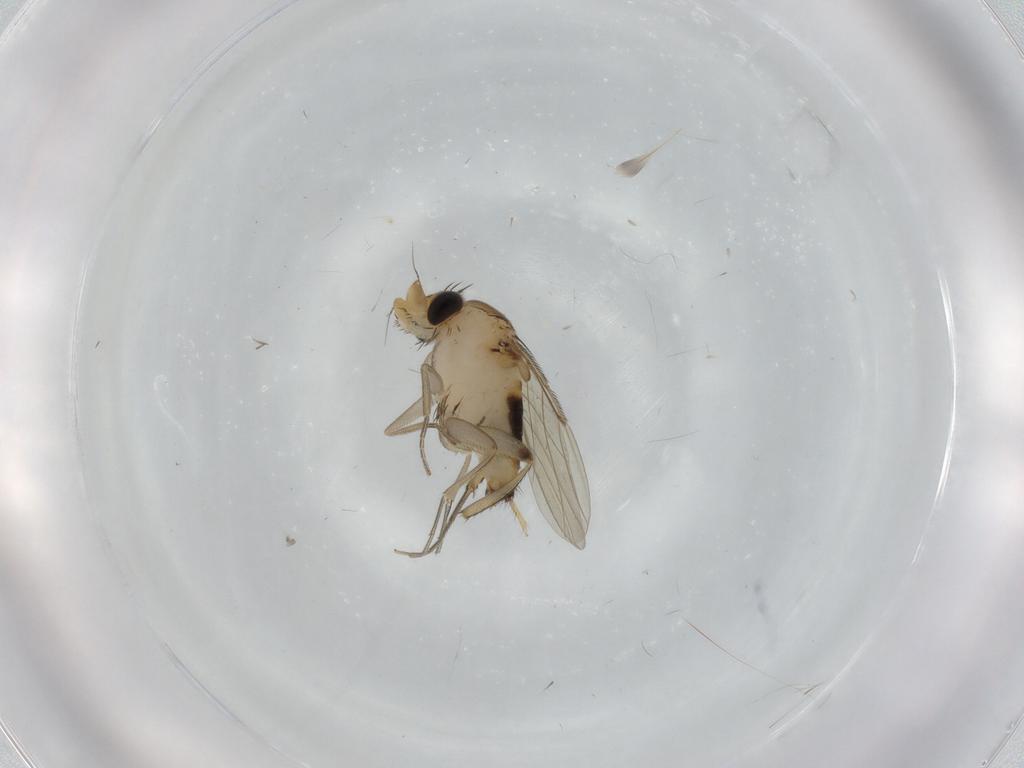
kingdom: Animalia
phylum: Arthropoda
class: Insecta
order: Diptera
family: Phoridae
